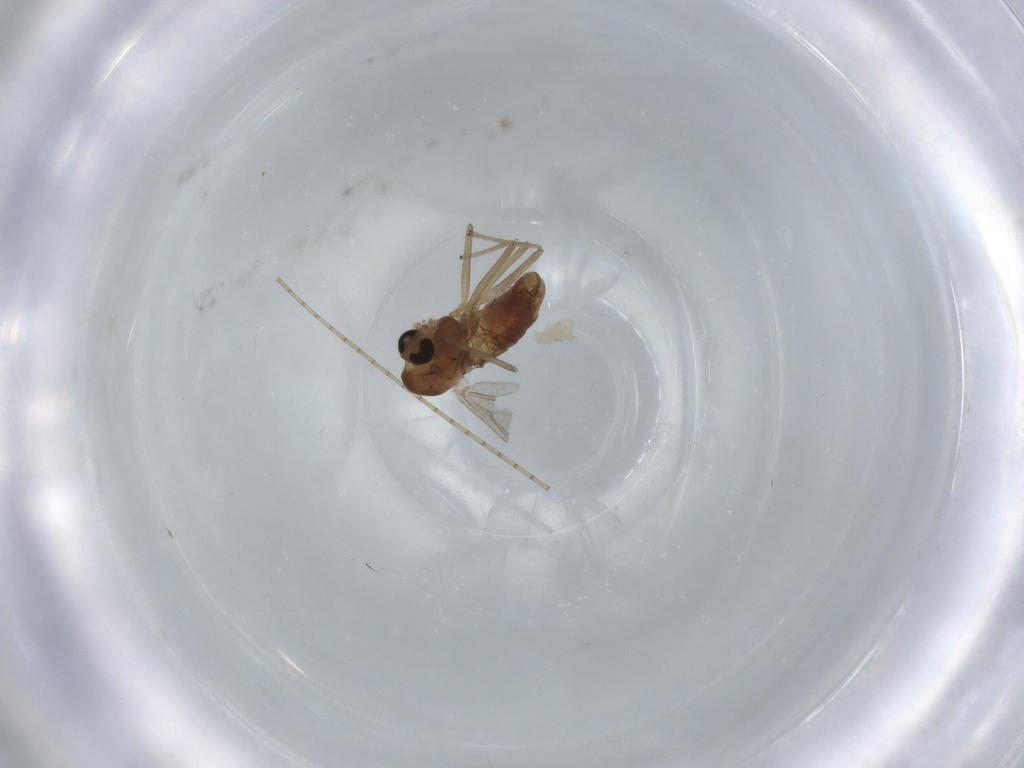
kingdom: Animalia
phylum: Arthropoda
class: Insecta
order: Diptera
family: Chironomidae
